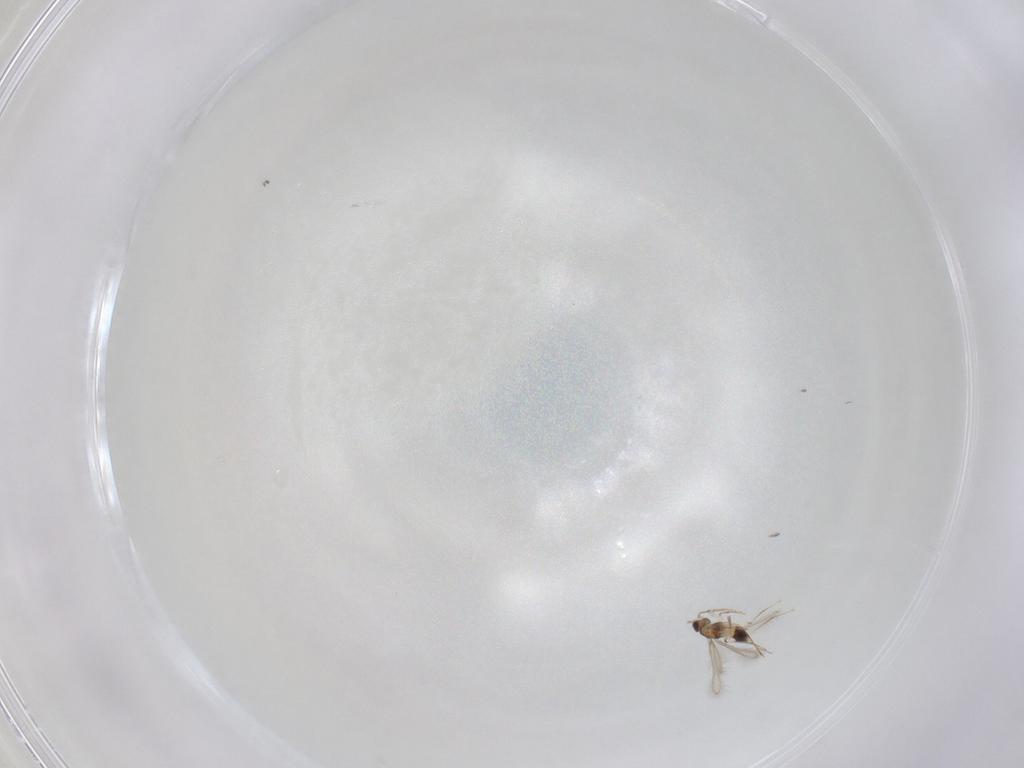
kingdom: Animalia
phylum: Arthropoda
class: Insecta
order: Hymenoptera
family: Mymaridae
